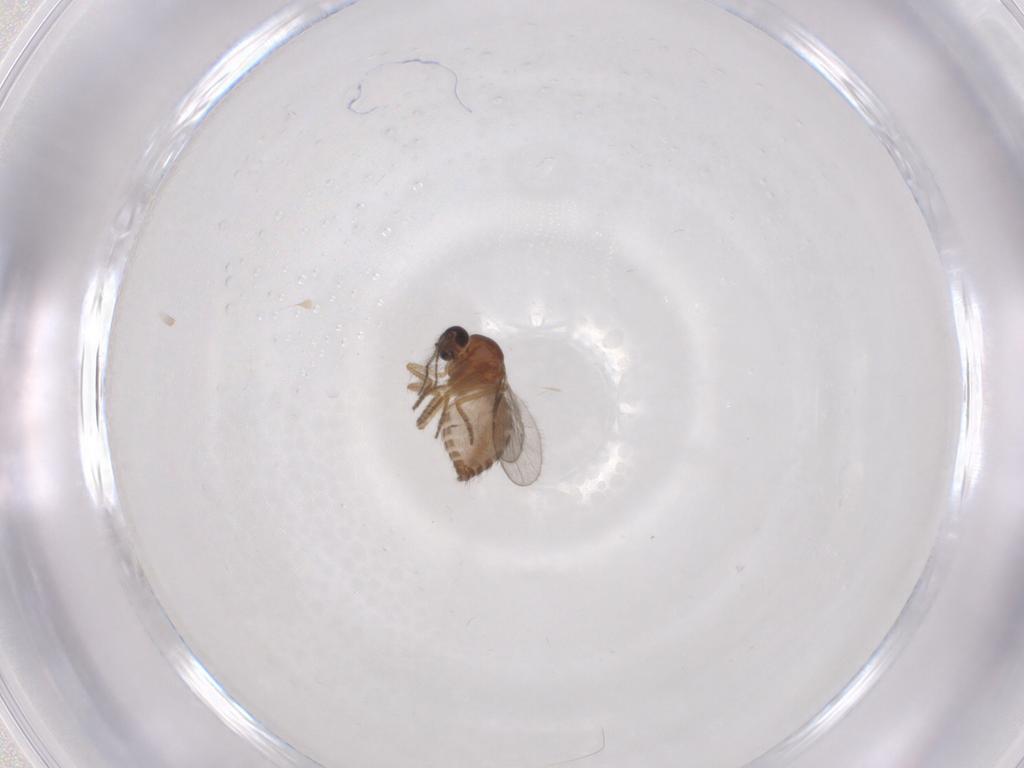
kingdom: Animalia
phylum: Arthropoda
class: Insecta
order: Diptera
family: Ceratopogonidae
